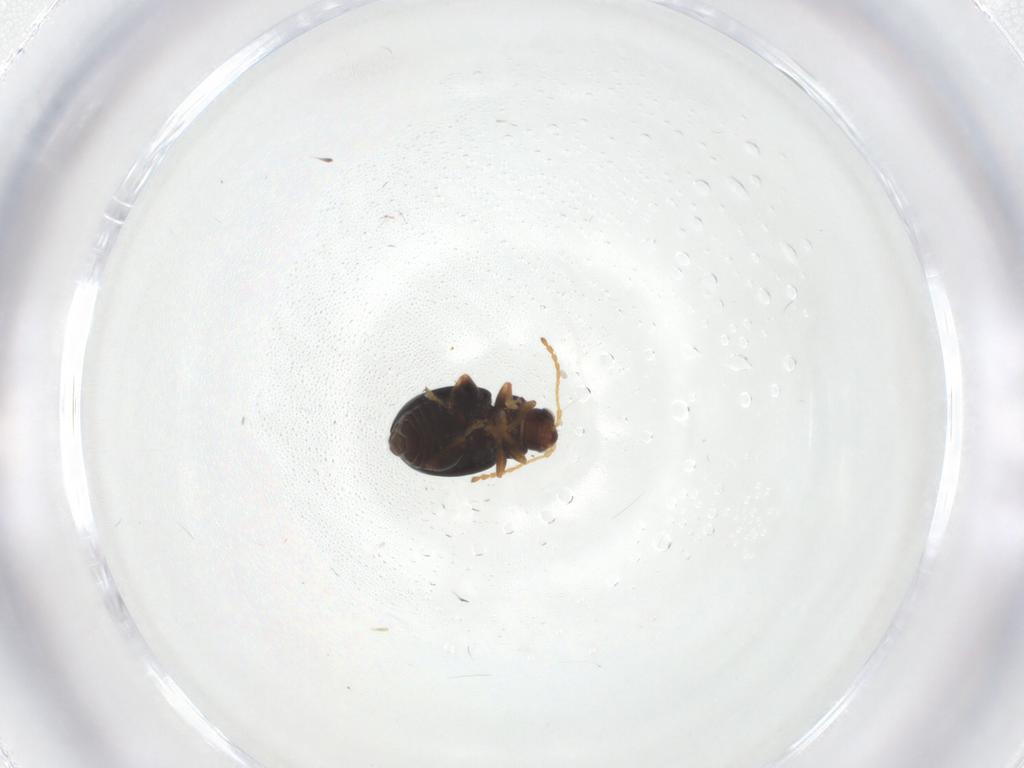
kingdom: Animalia
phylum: Arthropoda
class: Insecta
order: Coleoptera
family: Chrysomelidae
